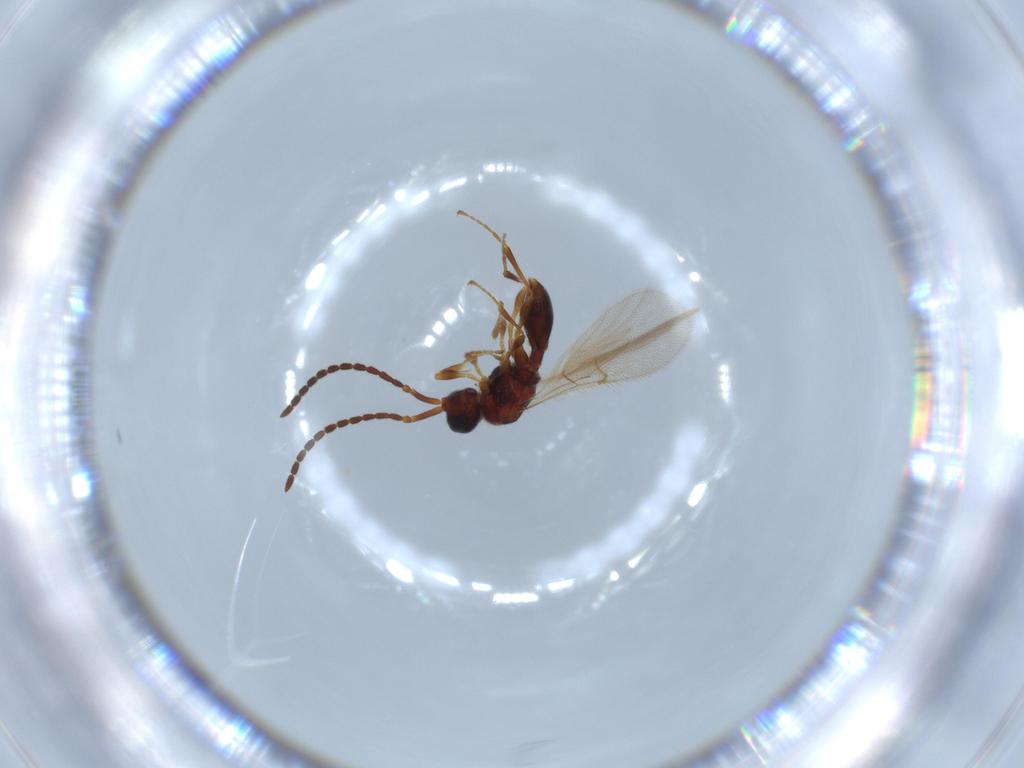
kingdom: Animalia
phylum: Arthropoda
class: Insecta
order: Hymenoptera
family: Diapriidae
